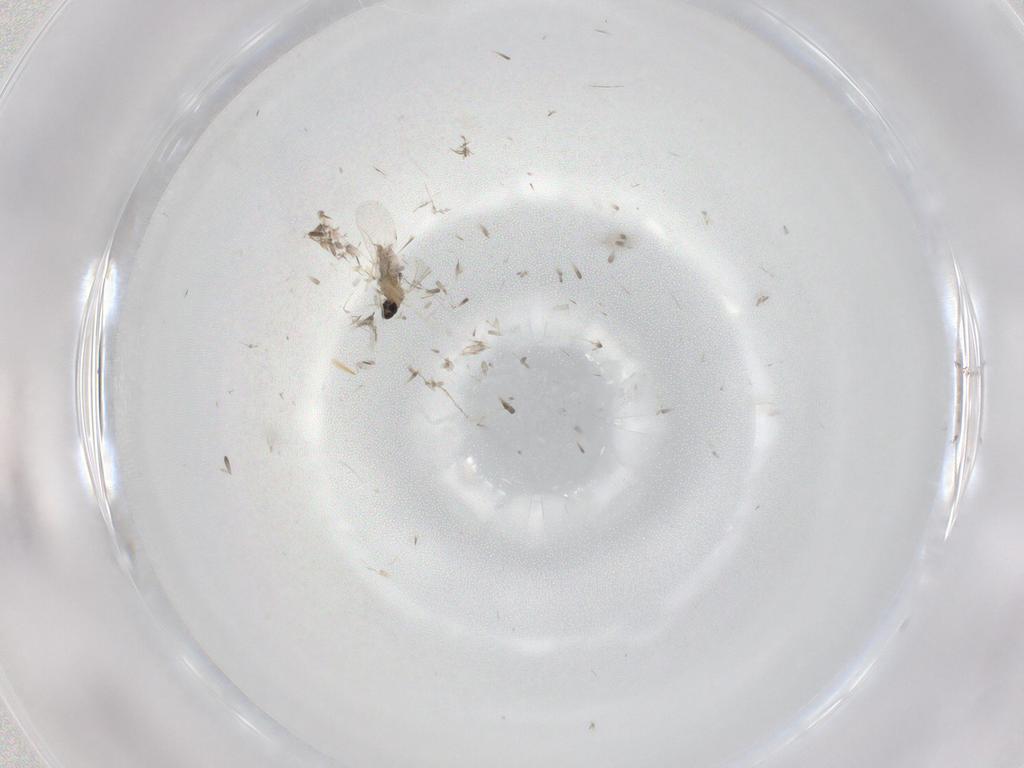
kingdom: Animalia
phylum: Arthropoda
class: Insecta
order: Diptera
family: Cecidomyiidae
